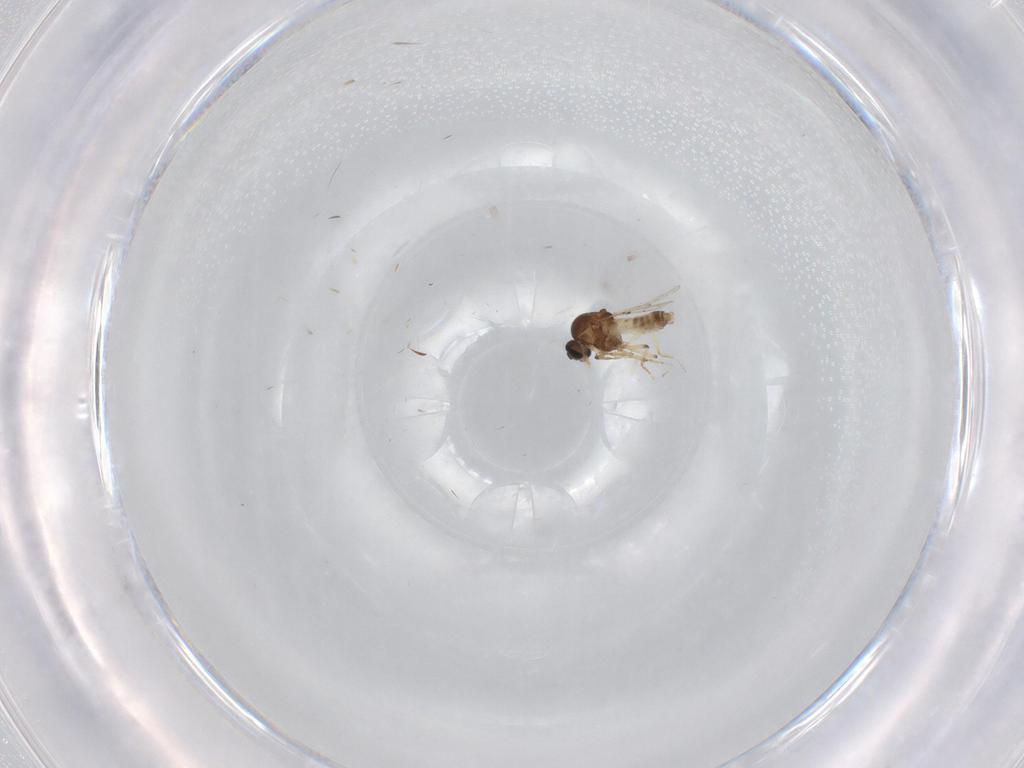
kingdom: Animalia
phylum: Arthropoda
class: Insecta
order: Diptera
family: Ceratopogonidae
